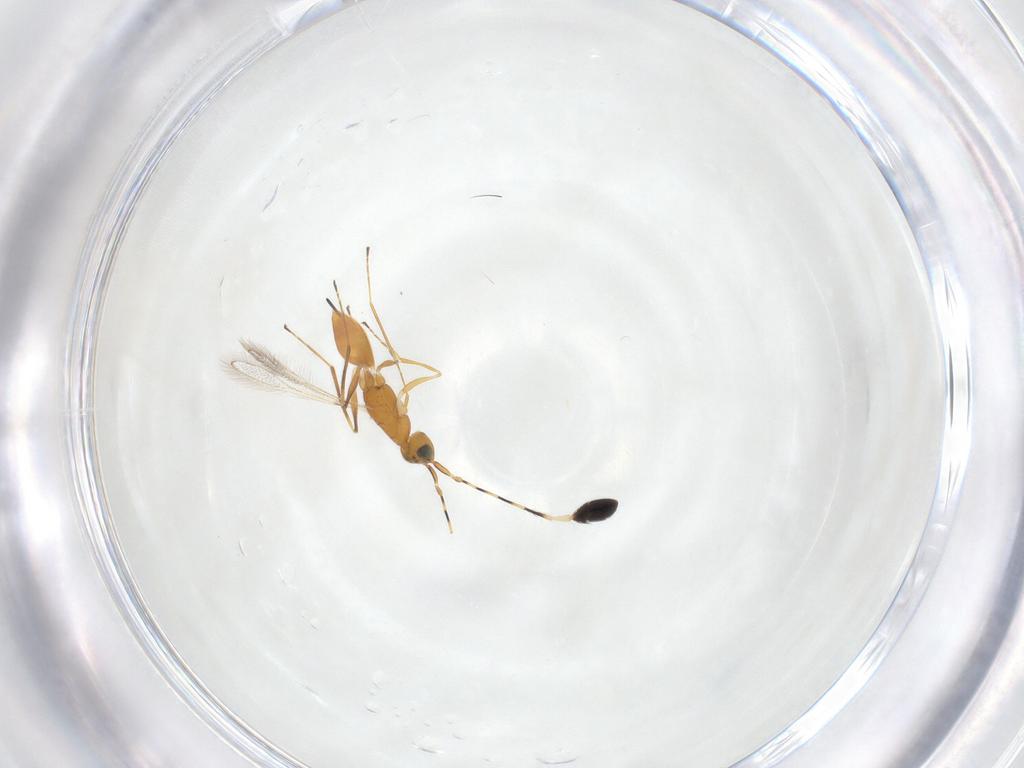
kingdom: Animalia
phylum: Arthropoda
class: Insecta
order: Hymenoptera
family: Mymaridae
